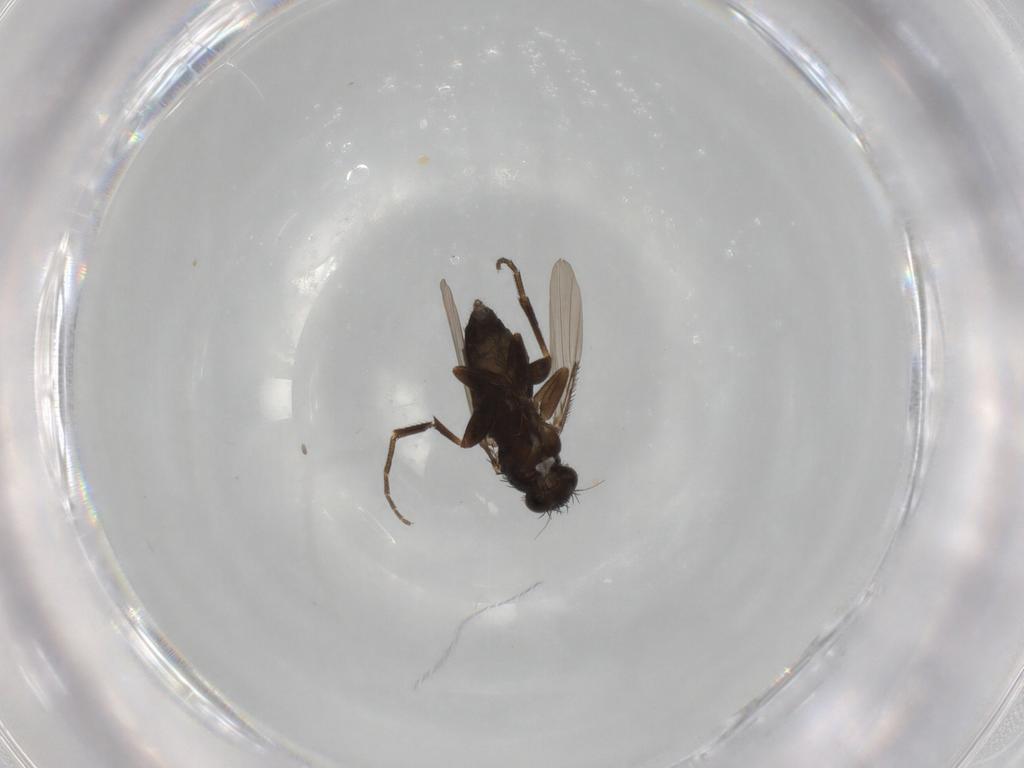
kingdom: Animalia
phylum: Arthropoda
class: Insecta
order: Diptera
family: Phoridae
